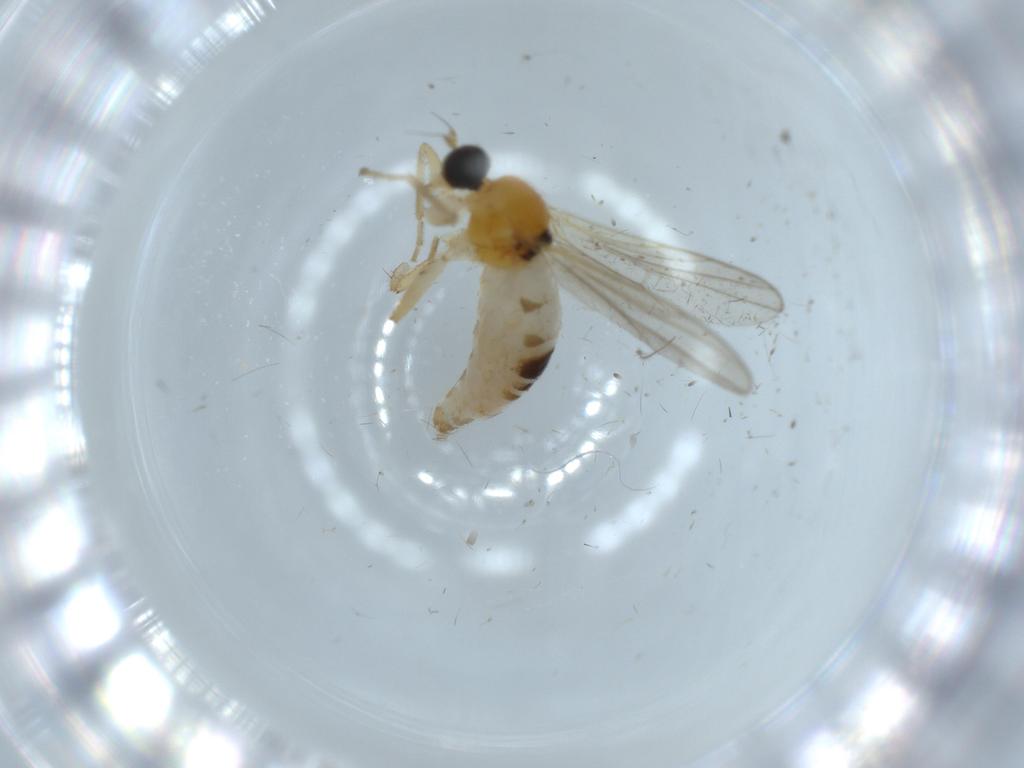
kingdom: Animalia
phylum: Arthropoda
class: Insecta
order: Diptera
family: Hybotidae
